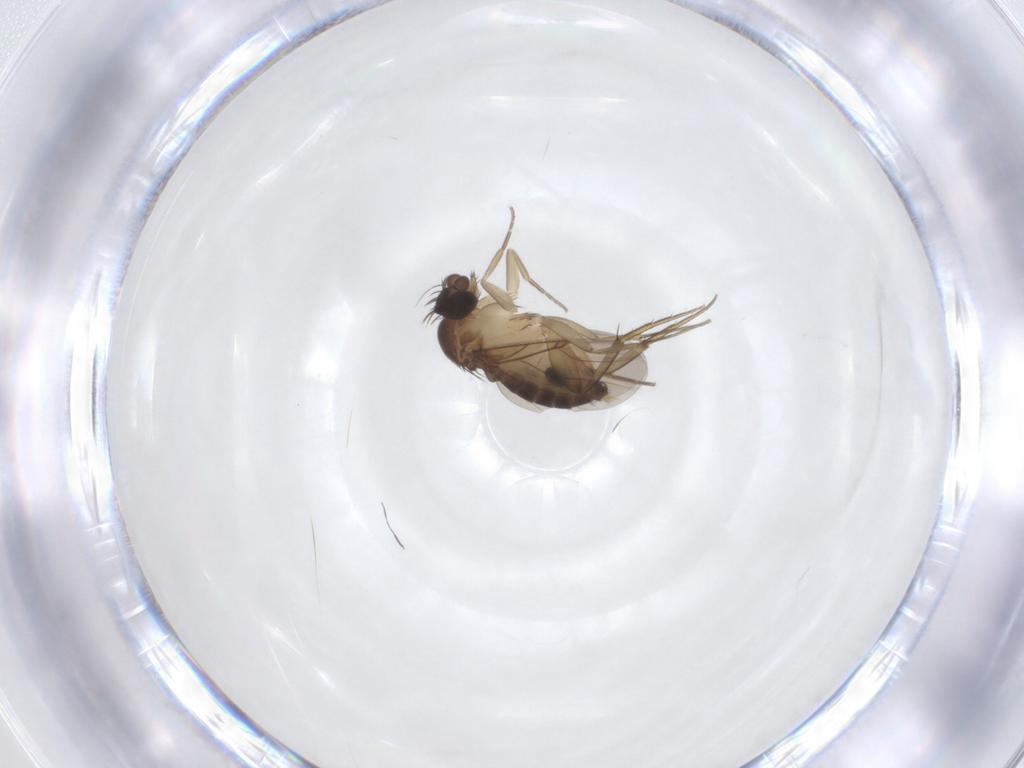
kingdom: Animalia
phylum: Arthropoda
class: Insecta
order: Diptera
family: Phoridae
